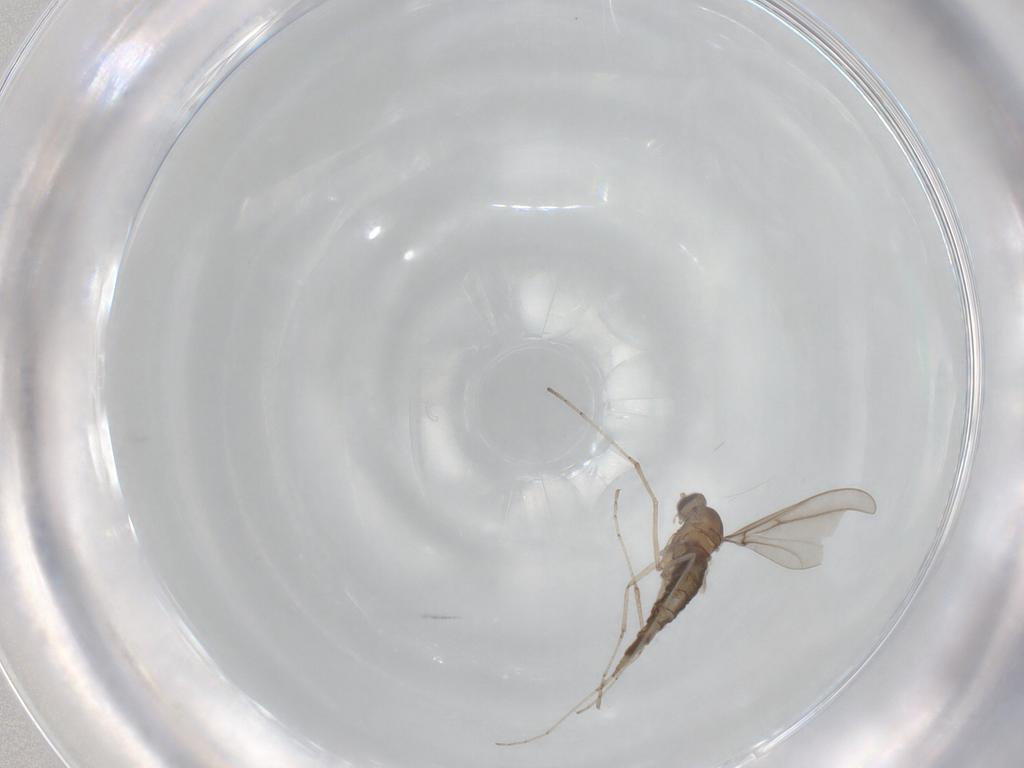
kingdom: Animalia
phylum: Arthropoda
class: Insecta
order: Diptera
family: Cecidomyiidae
